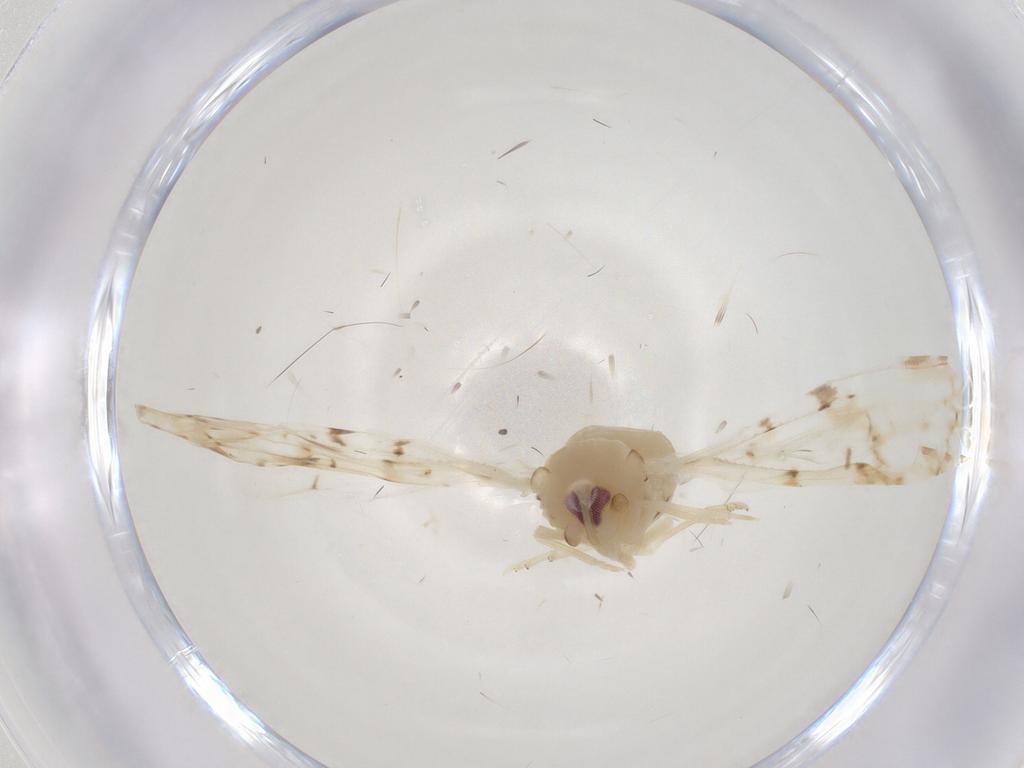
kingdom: Animalia
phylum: Arthropoda
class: Insecta
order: Hemiptera
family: Derbidae
